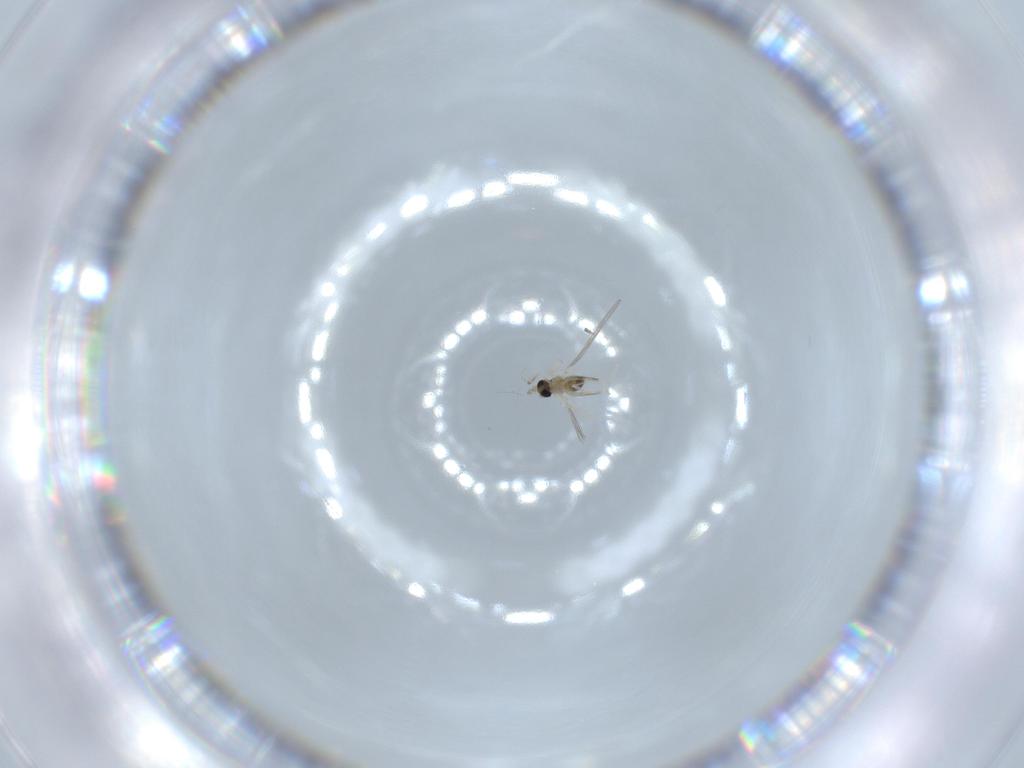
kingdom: Animalia
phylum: Arthropoda
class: Insecta
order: Diptera
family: Cecidomyiidae
